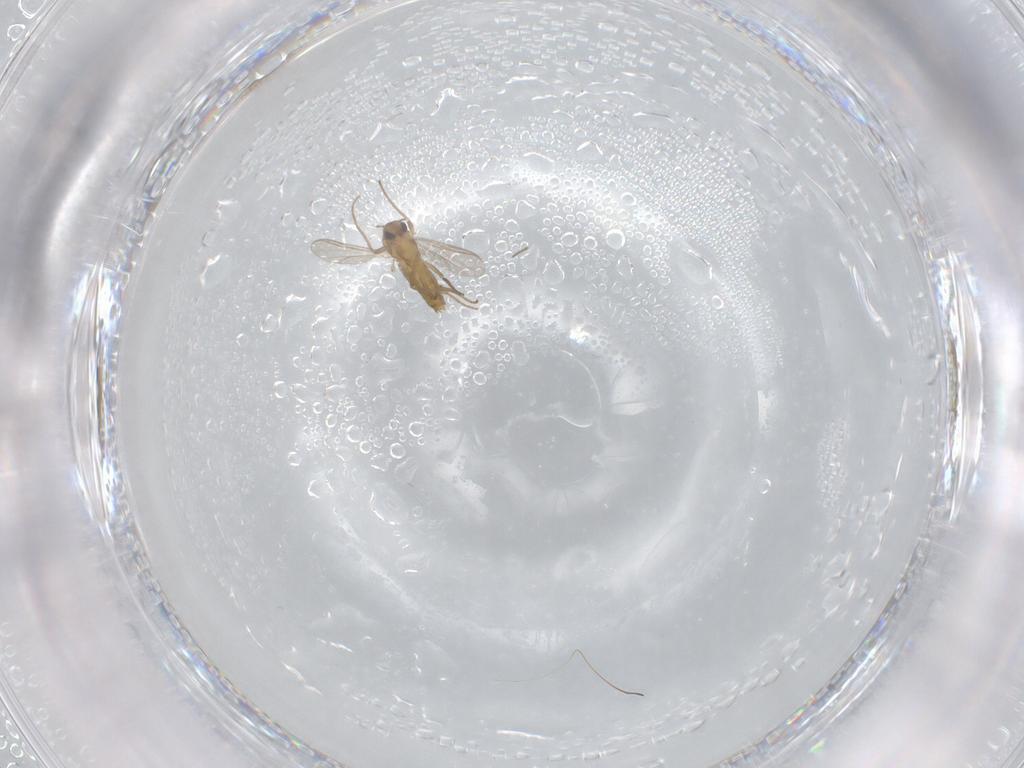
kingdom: Animalia
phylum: Arthropoda
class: Insecta
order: Diptera
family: Chironomidae
